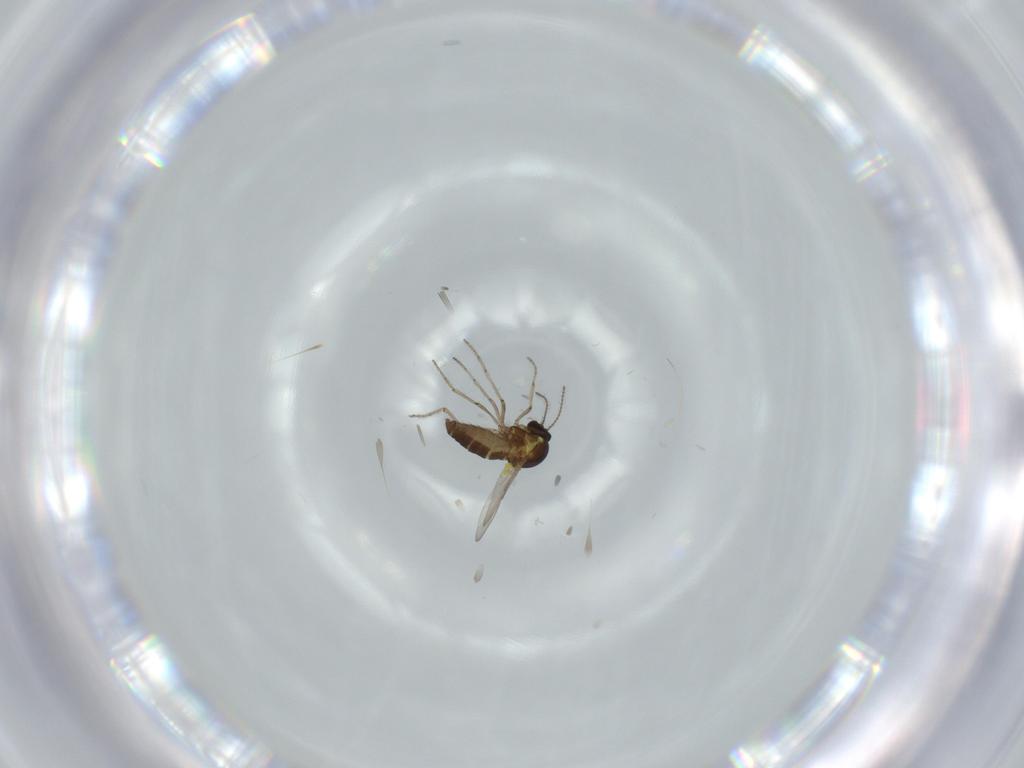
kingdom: Animalia
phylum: Arthropoda
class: Insecta
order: Diptera
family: Ceratopogonidae
